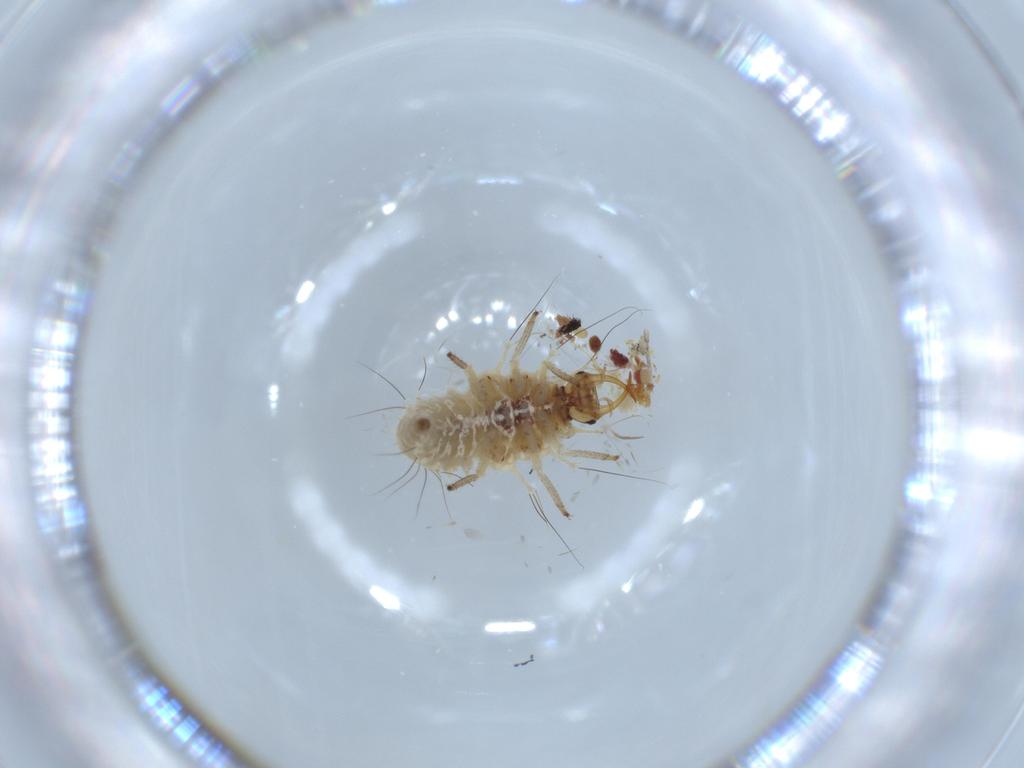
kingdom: Animalia
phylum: Arthropoda
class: Insecta
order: Neuroptera
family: Chrysopidae
